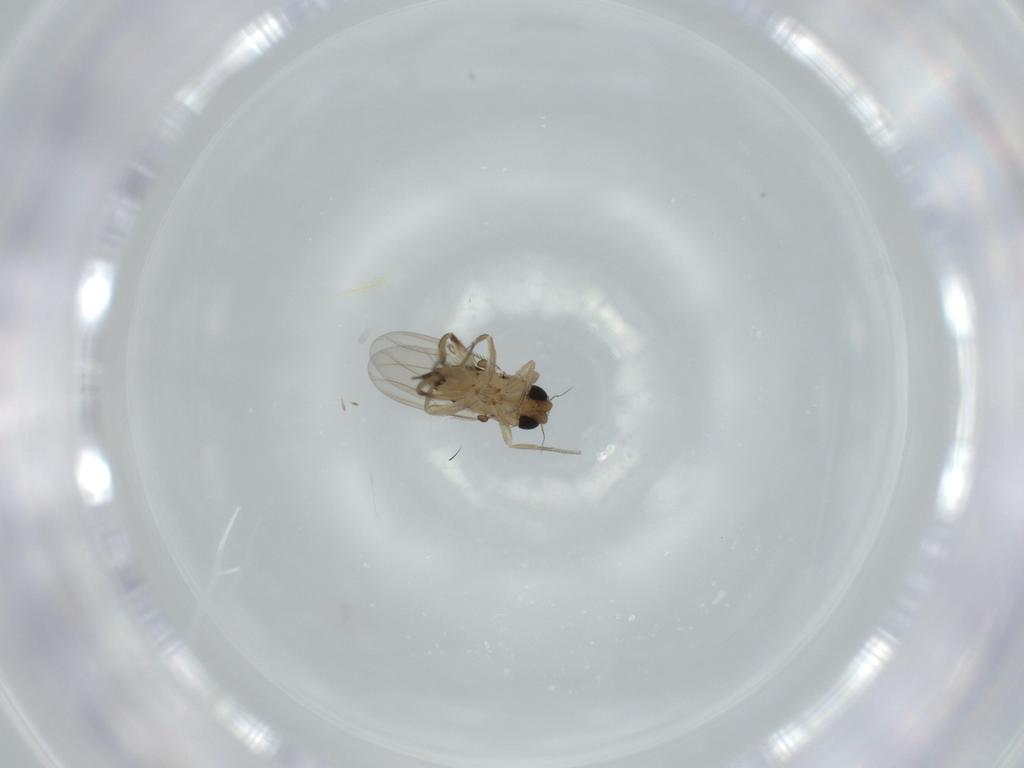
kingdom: Animalia
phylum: Arthropoda
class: Insecta
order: Diptera
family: Phoridae
